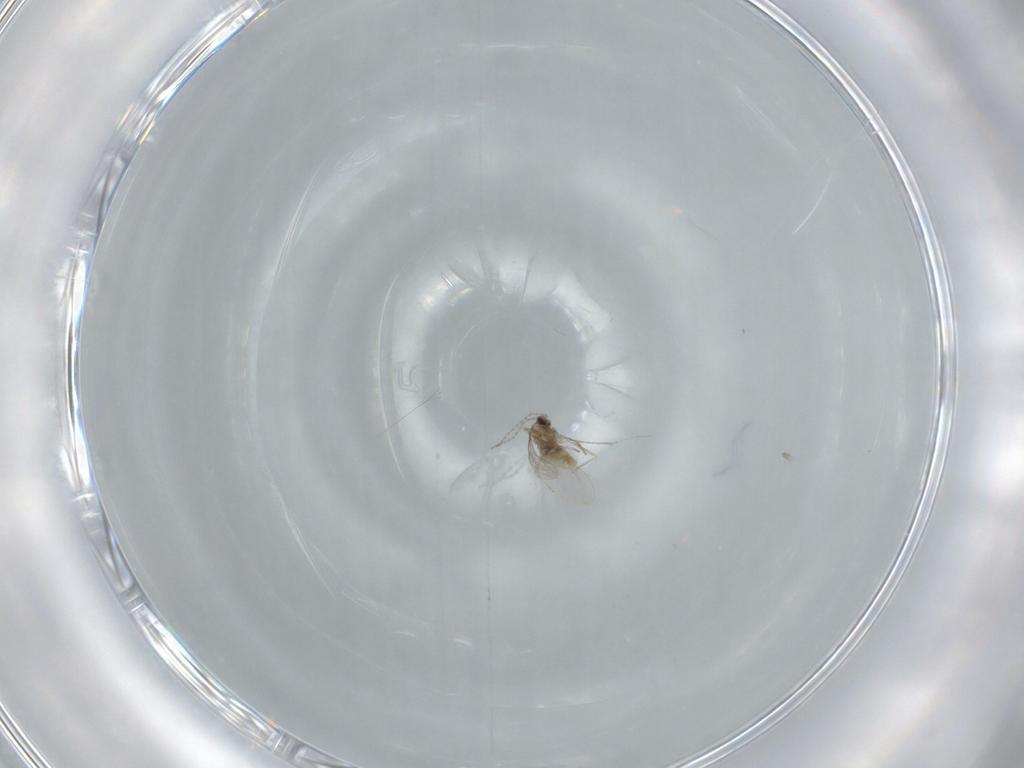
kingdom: Animalia
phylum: Arthropoda
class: Insecta
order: Diptera
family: Cecidomyiidae
